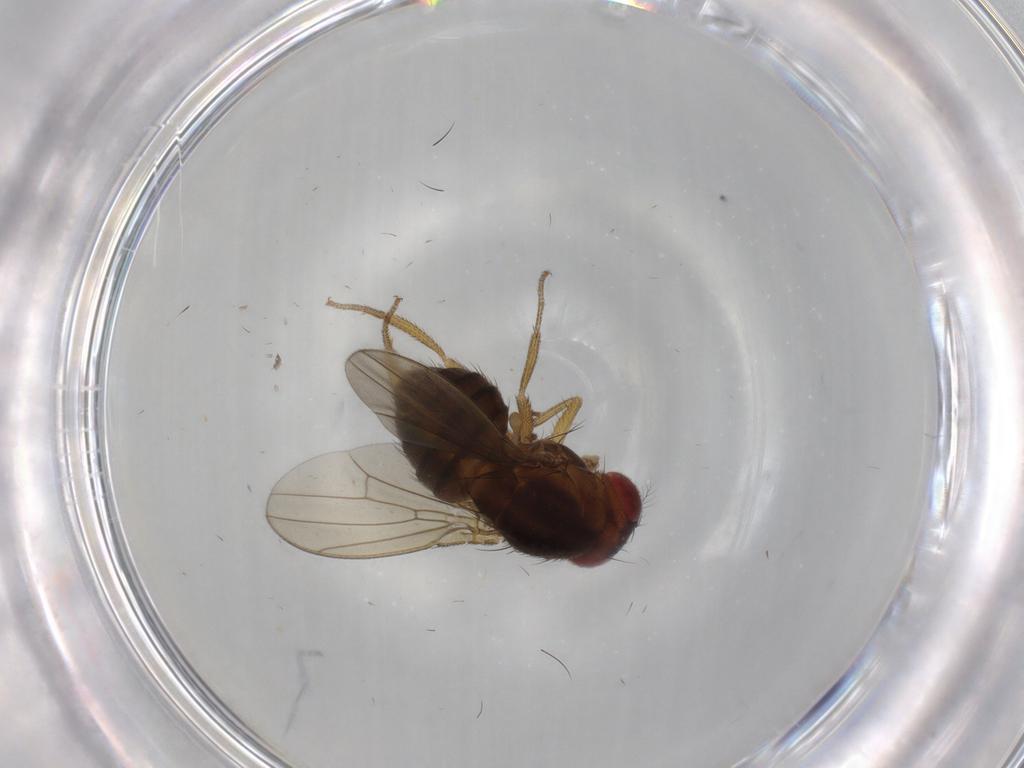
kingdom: Animalia
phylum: Arthropoda
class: Insecta
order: Diptera
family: Drosophilidae
